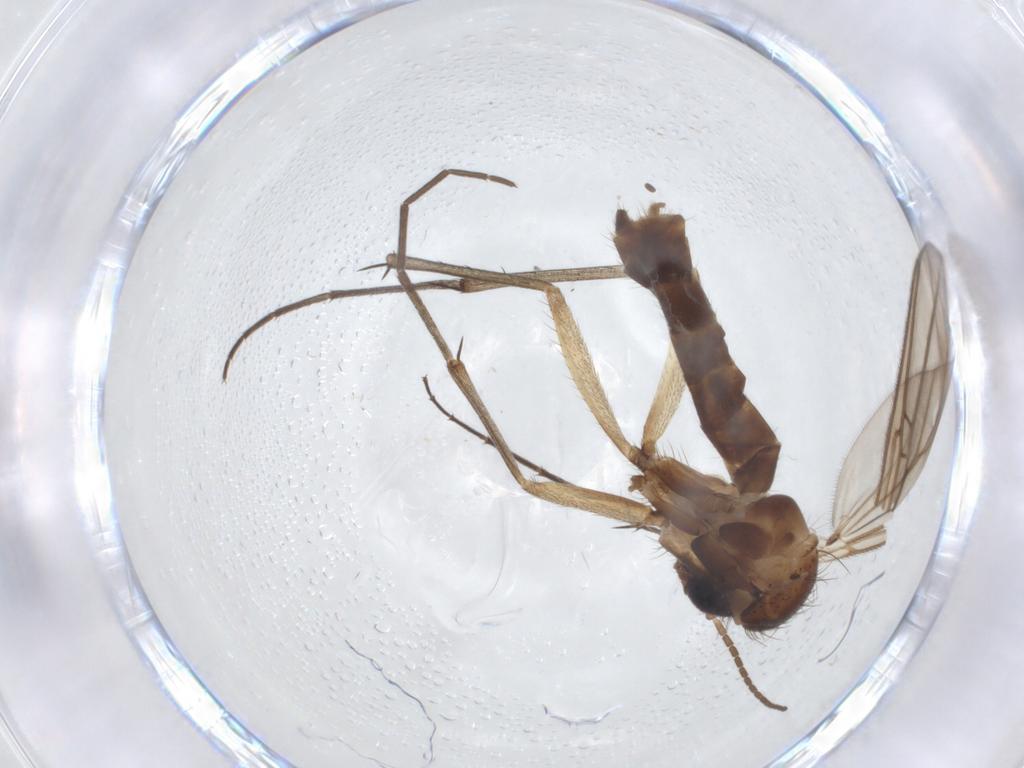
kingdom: Animalia
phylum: Arthropoda
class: Insecta
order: Diptera
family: Mycetophilidae
